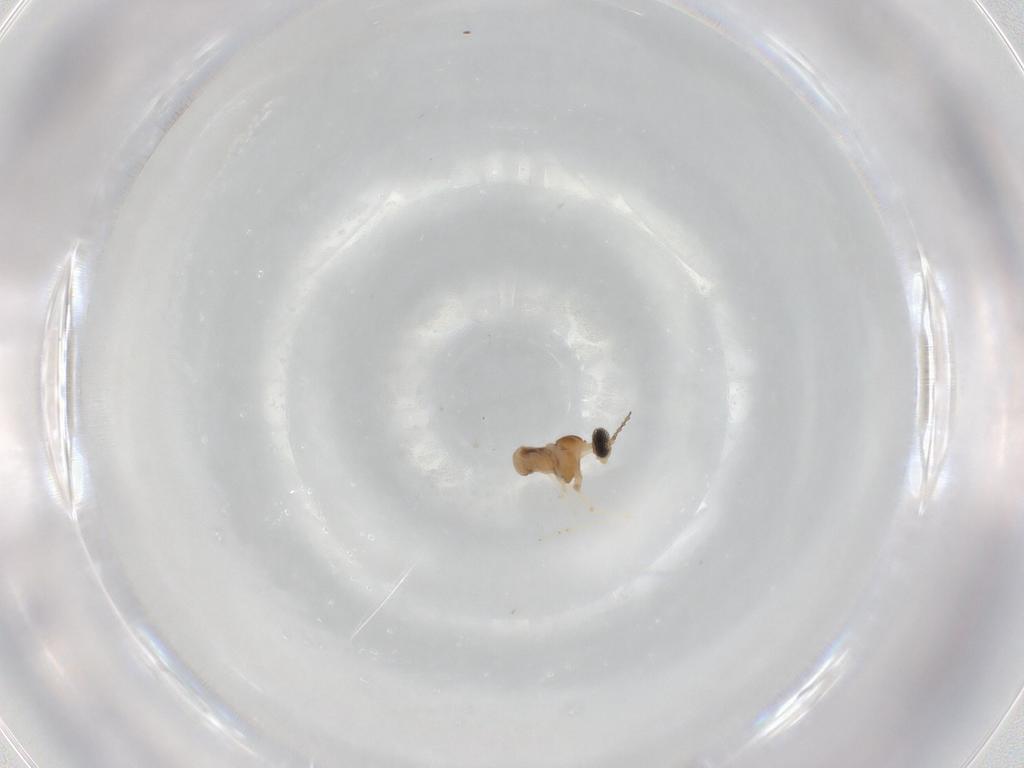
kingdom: Animalia
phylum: Arthropoda
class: Insecta
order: Diptera
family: Cecidomyiidae
